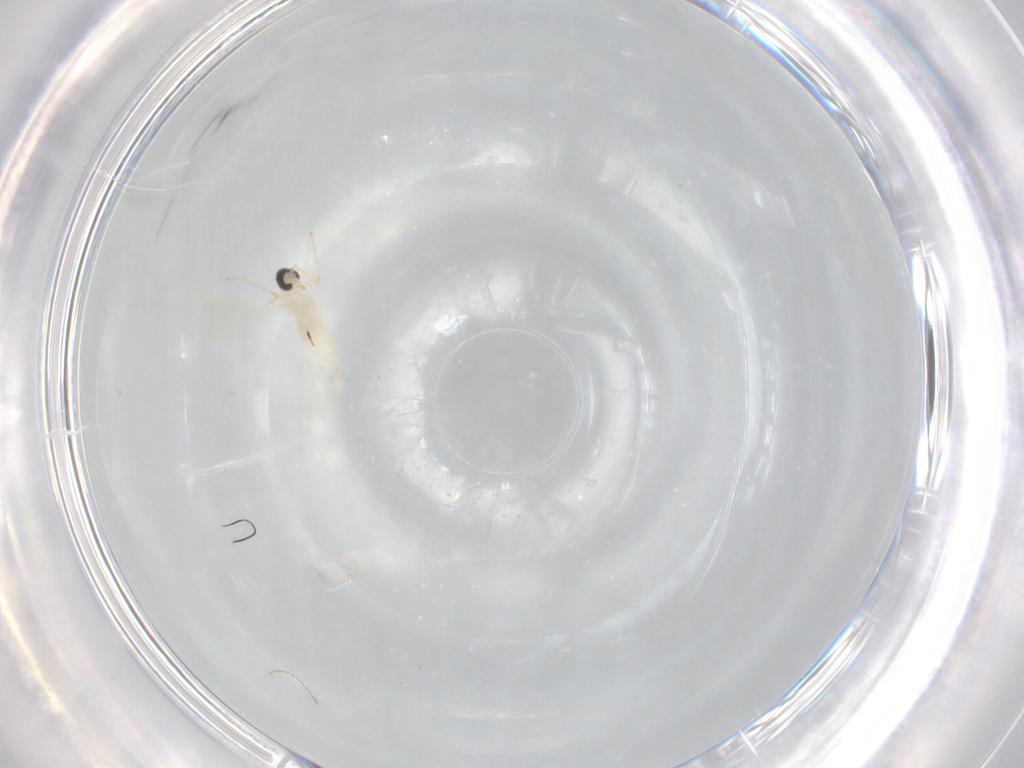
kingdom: Animalia
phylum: Arthropoda
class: Insecta
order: Diptera
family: Cecidomyiidae
